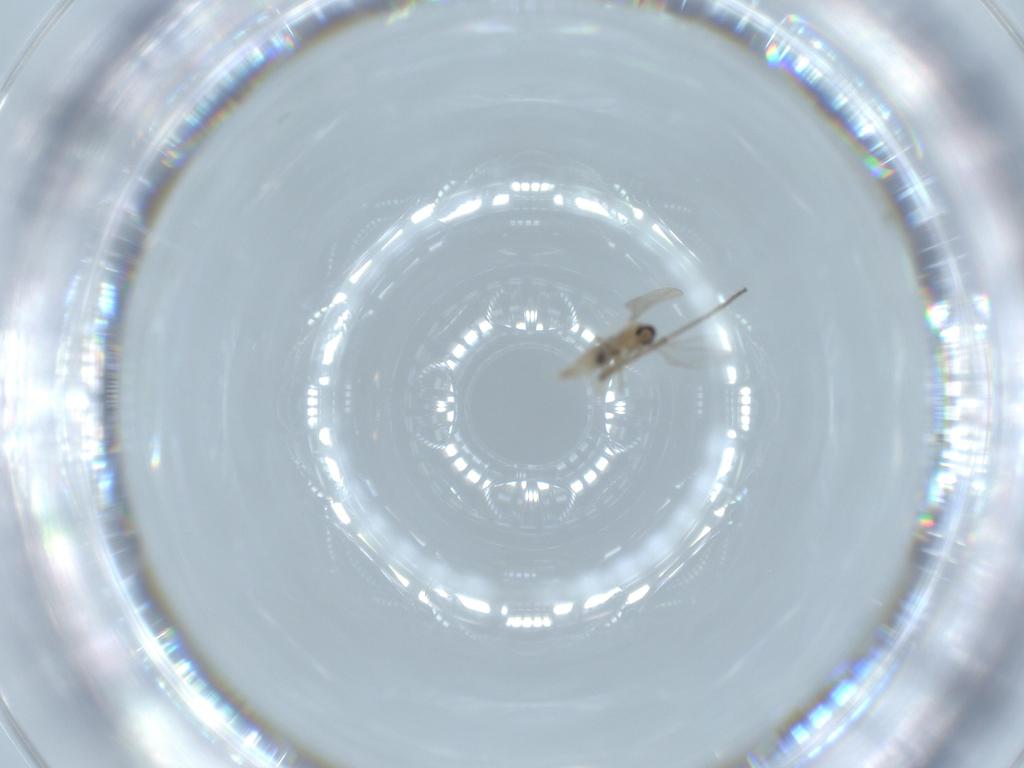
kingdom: Animalia
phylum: Arthropoda
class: Insecta
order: Diptera
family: Cecidomyiidae
